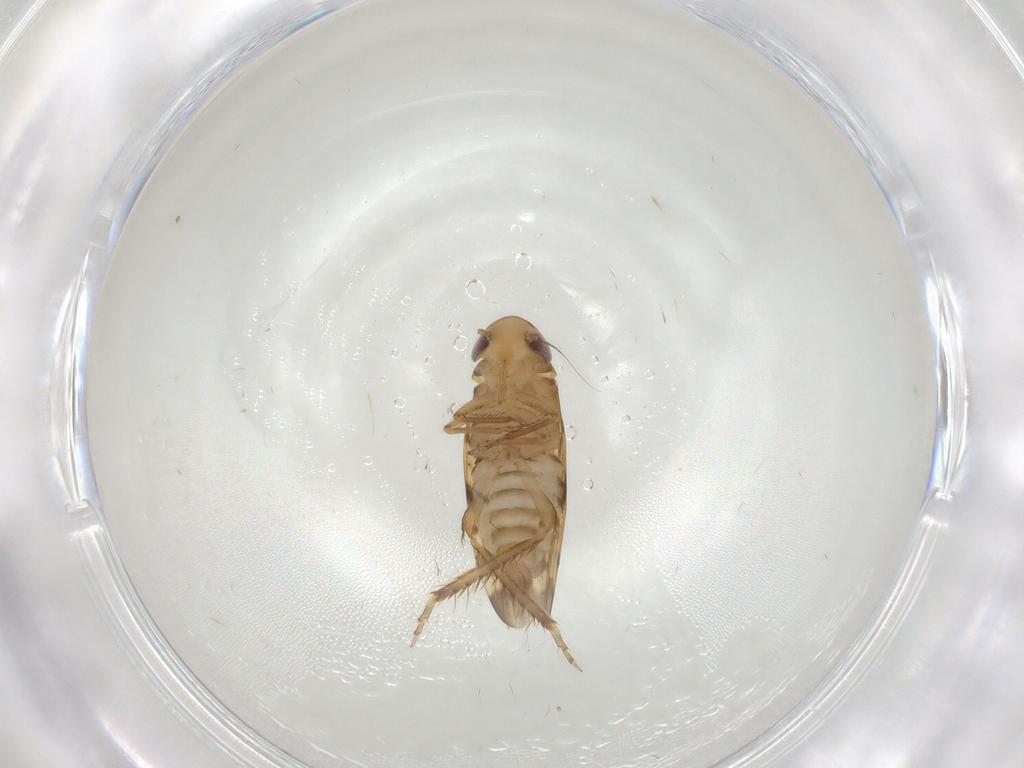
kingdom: Animalia
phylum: Arthropoda
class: Insecta
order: Hemiptera
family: Cicadellidae
